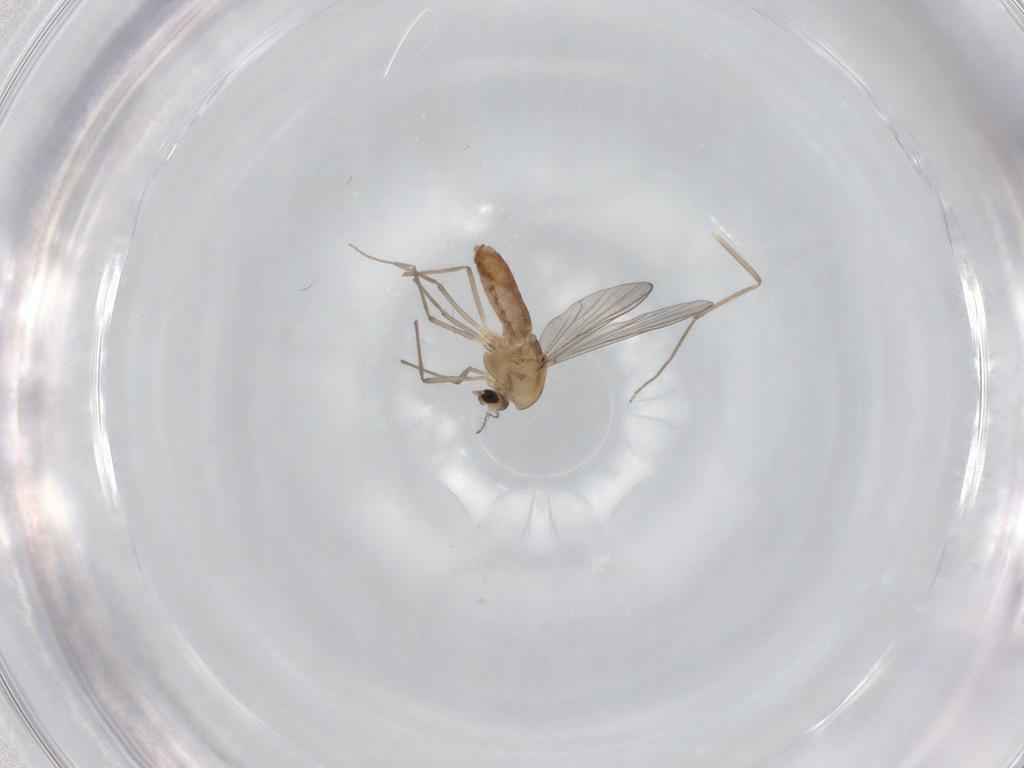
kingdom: Animalia
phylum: Arthropoda
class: Insecta
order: Diptera
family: Chironomidae
